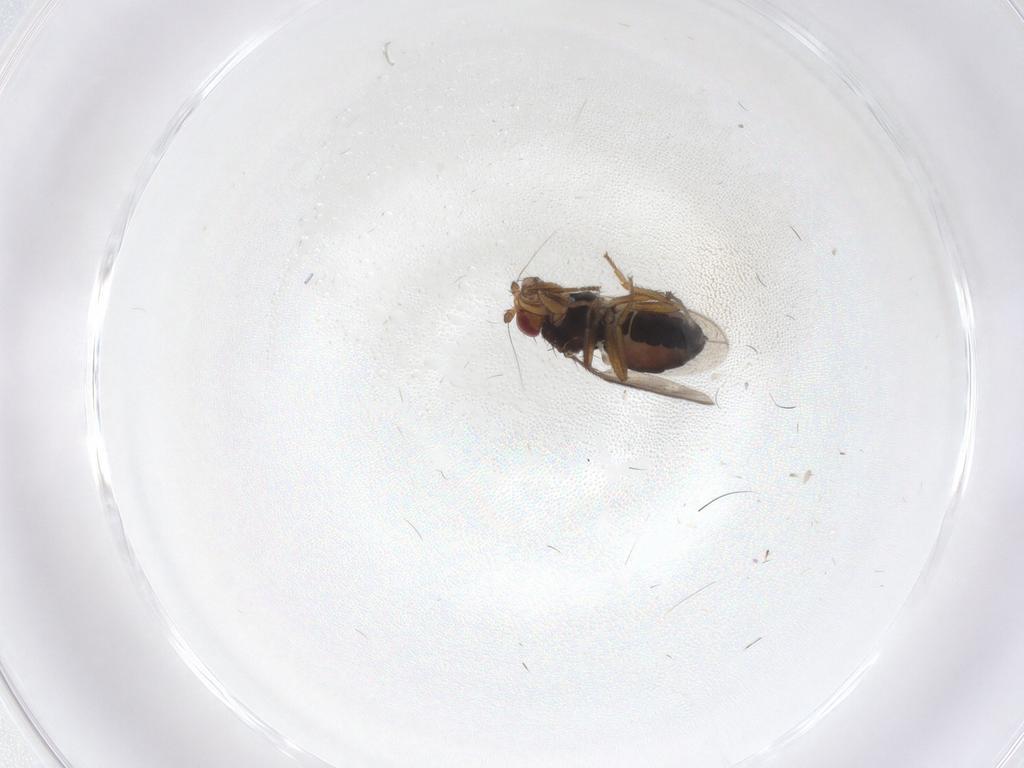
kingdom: Animalia
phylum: Arthropoda
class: Insecta
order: Diptera
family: Sphaeroceridae
